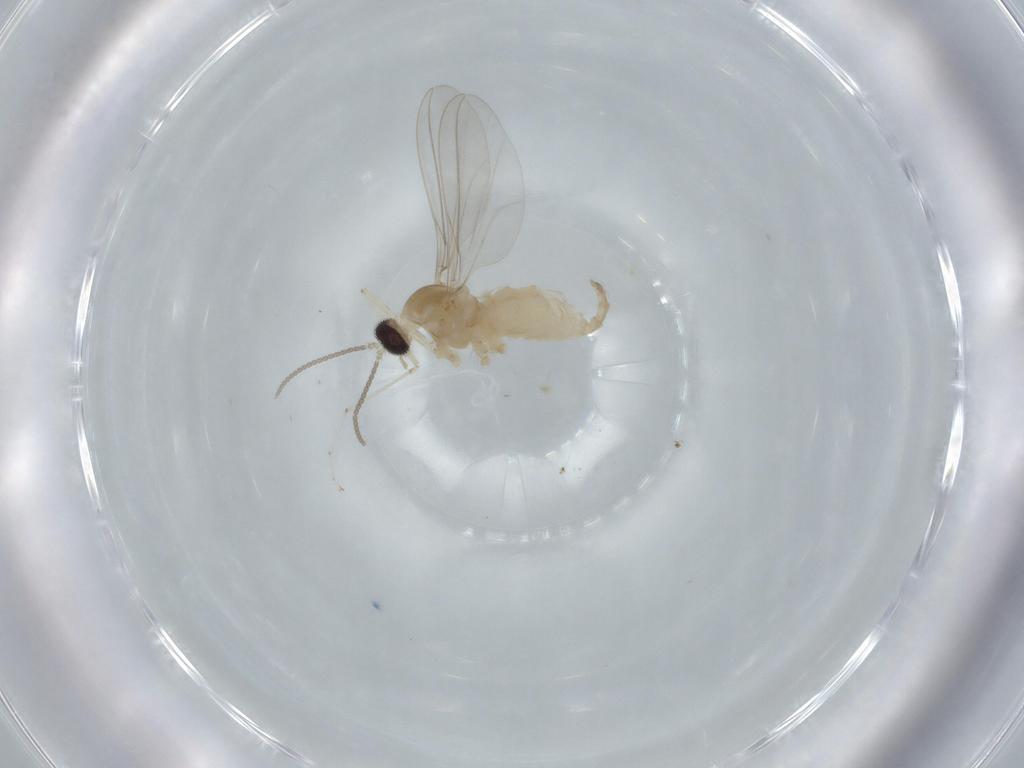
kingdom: Animalia
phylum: Arthropoda
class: Insecta
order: Diptera
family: Cecidomyiidae
